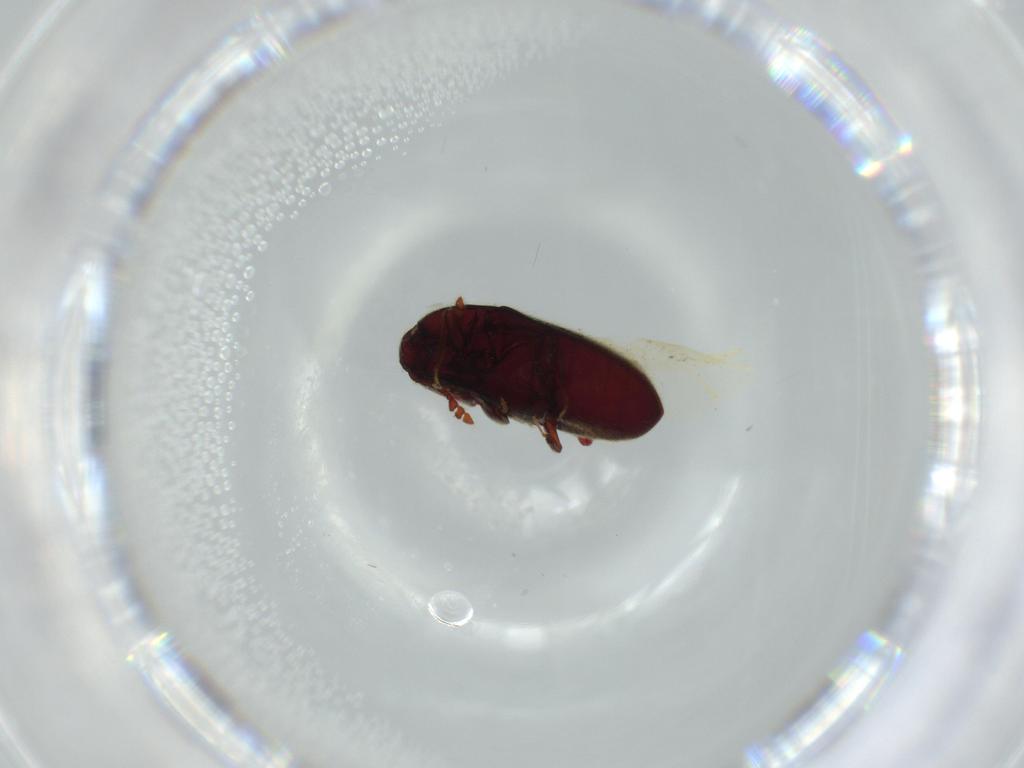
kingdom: Animalia
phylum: Arthropoda
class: Insecta
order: Coleoptera
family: Throscidae
